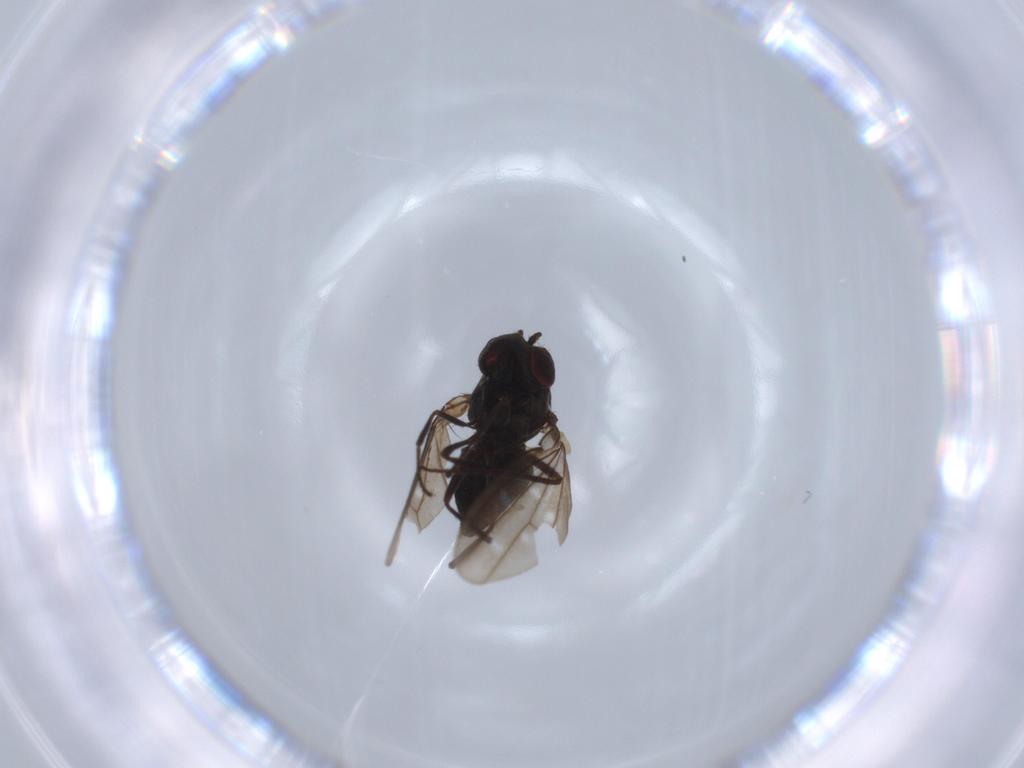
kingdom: Animalia
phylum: Arthropoda
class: Insecta
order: Diptera
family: Ephydridae
